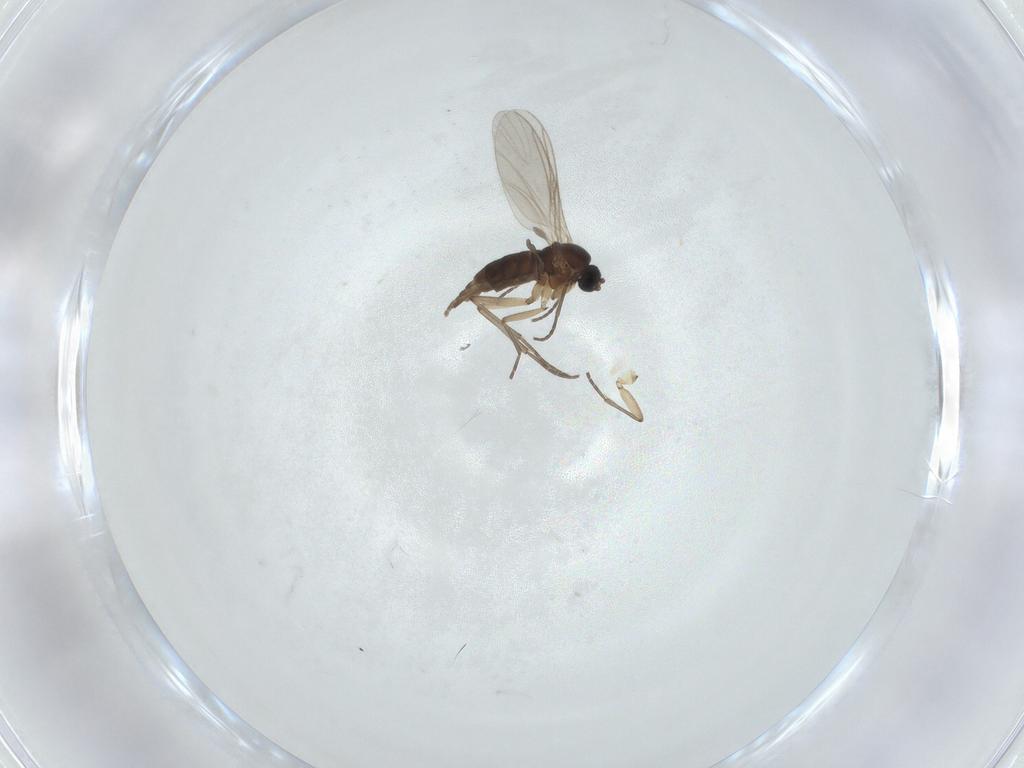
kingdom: Animalia
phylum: Arthropoda
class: Insecta
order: Diptera
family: Sciaridae
